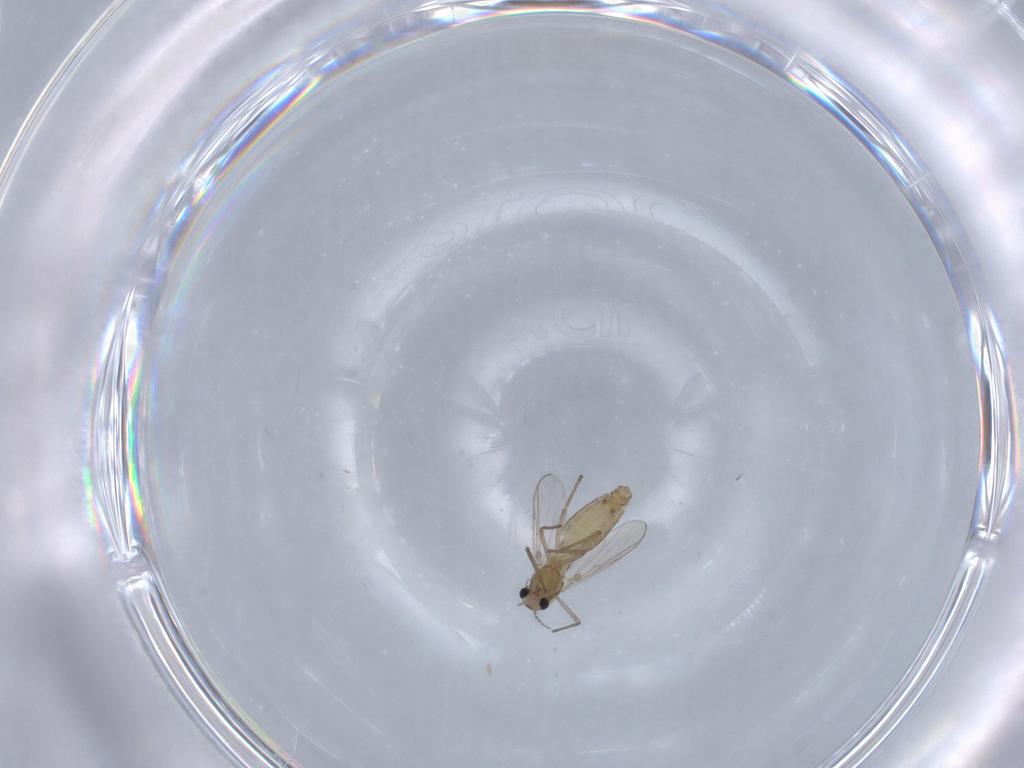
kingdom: Animalia
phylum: Arthropoda
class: Insecta
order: Diptera
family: Chironomidae
